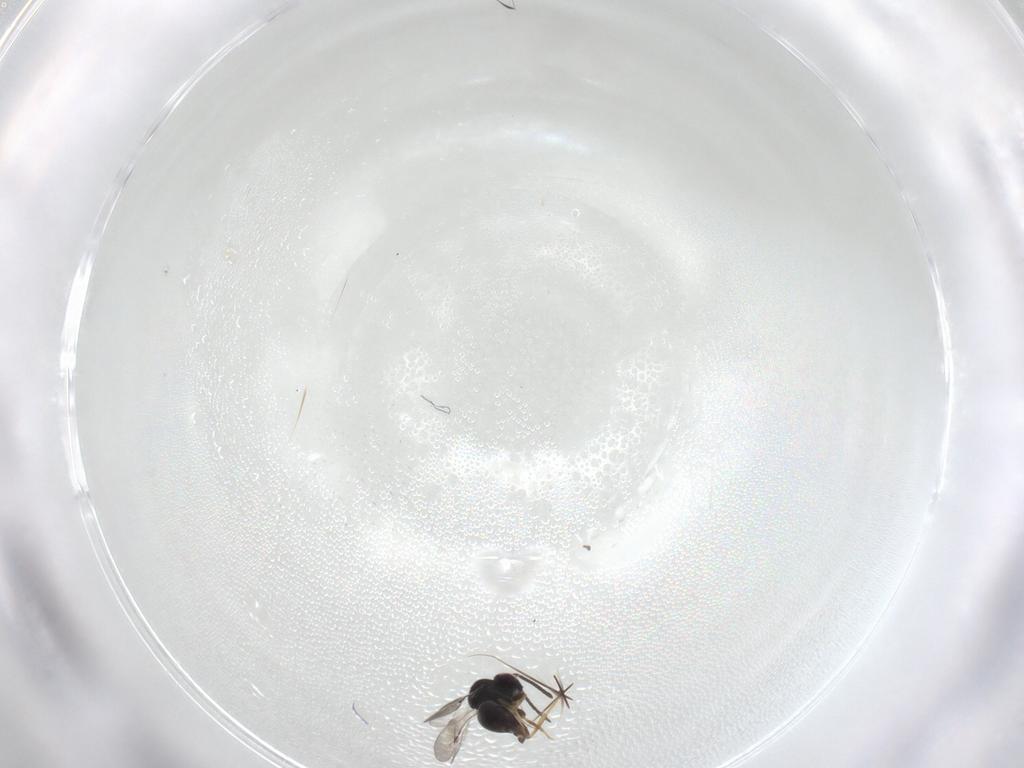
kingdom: Animalia
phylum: Arthropoda
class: Insecta
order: Hymenoptera
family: Ceraphronidae
